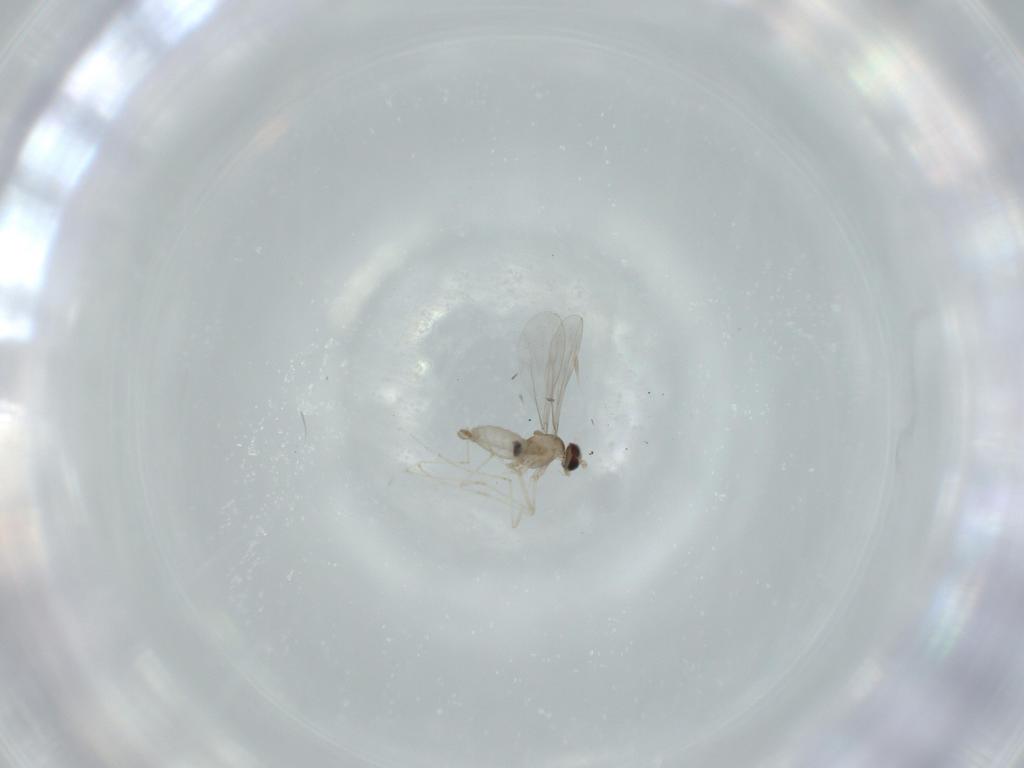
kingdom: Animalia
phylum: Arthropoda
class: Insecta
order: Diptera
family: Cecidomyiidae
